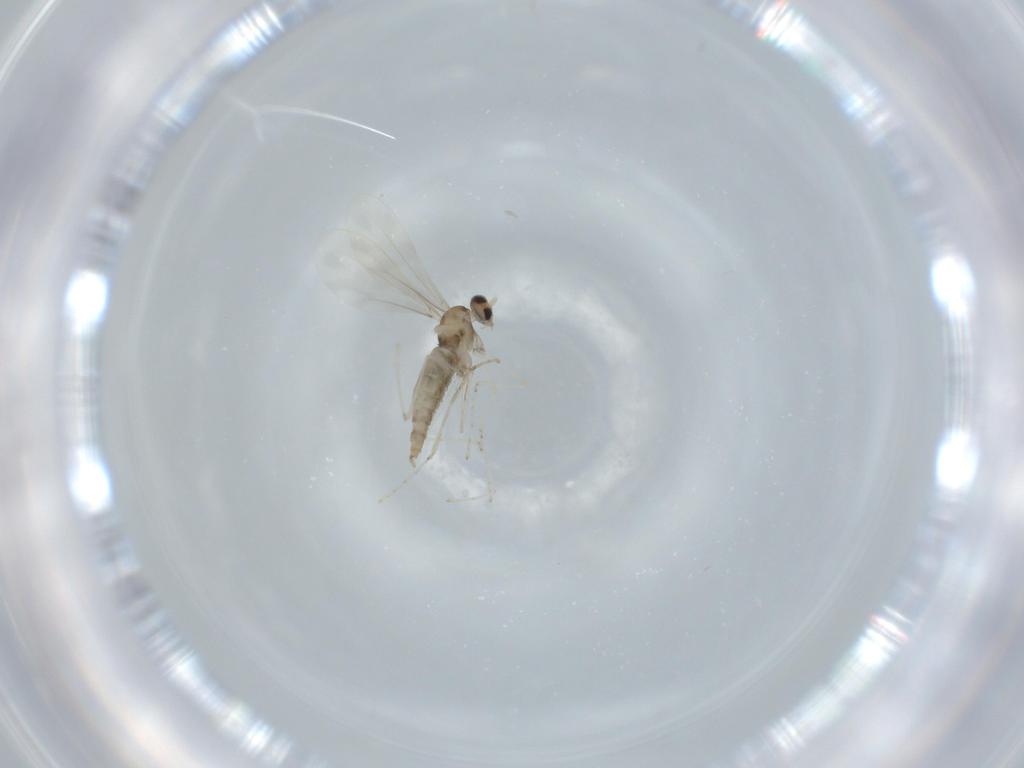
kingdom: Animalia
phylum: Arthropoda
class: Insecta
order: Diptera
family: Cecidomyiidae
